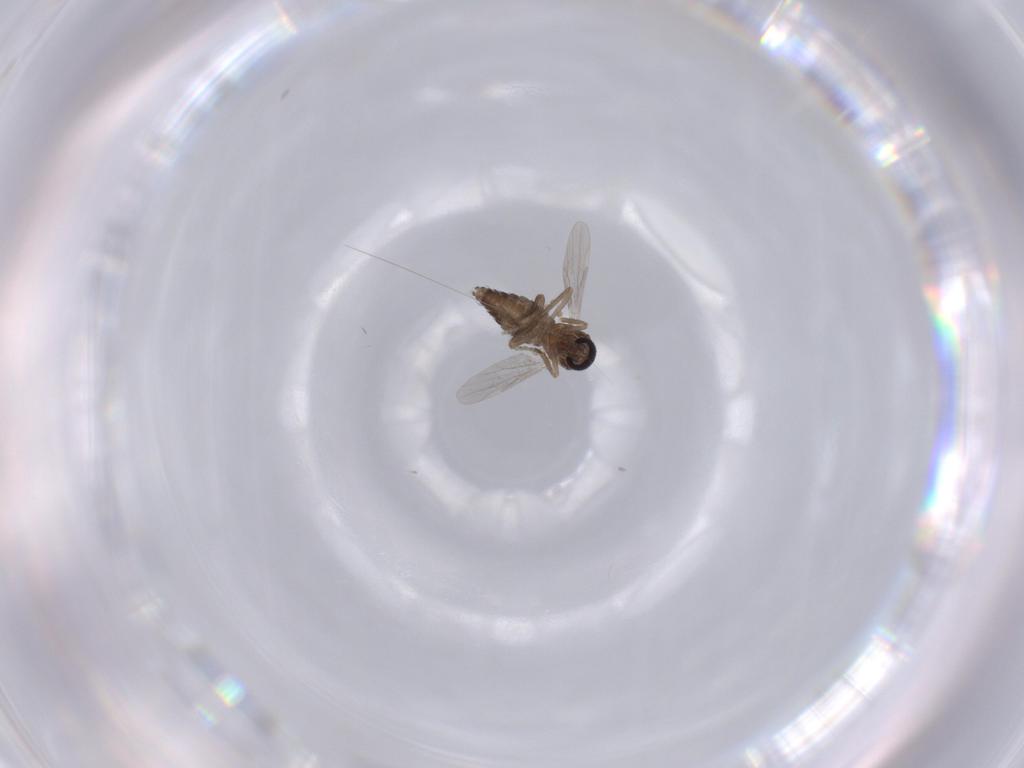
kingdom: Animalia
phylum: Arthropoda
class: Insecta
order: Diptera
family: Ceratopogonidae
